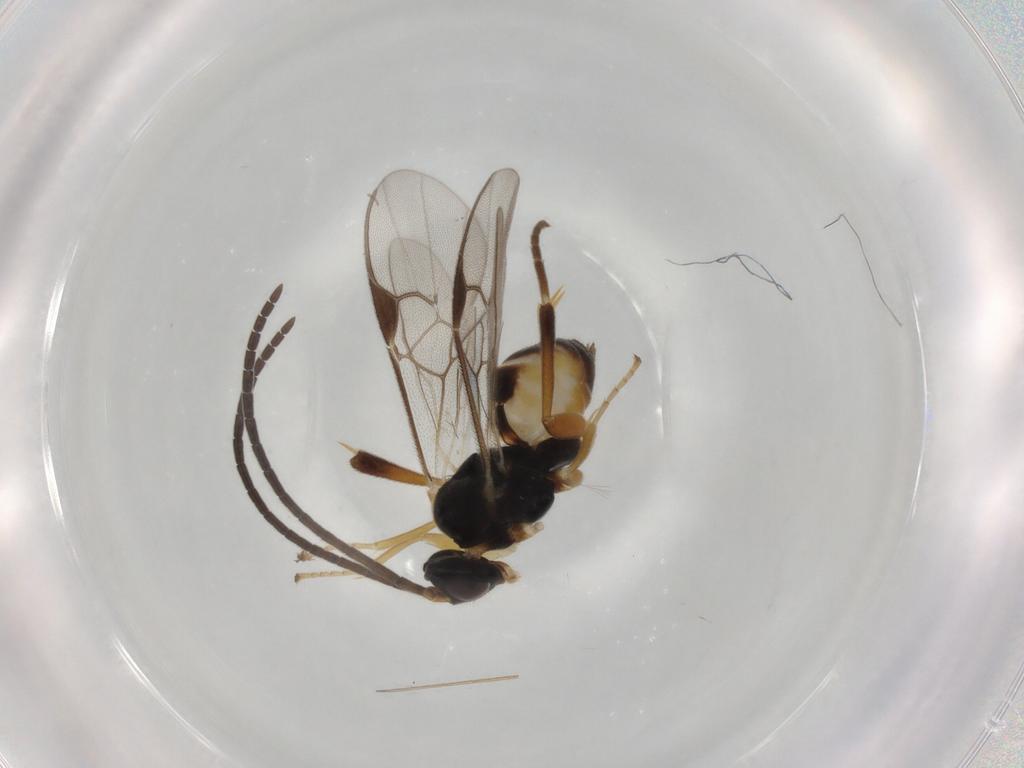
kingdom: Animalia
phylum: Arthropoda
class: Insecta
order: Hymenoptera
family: Braconidae
